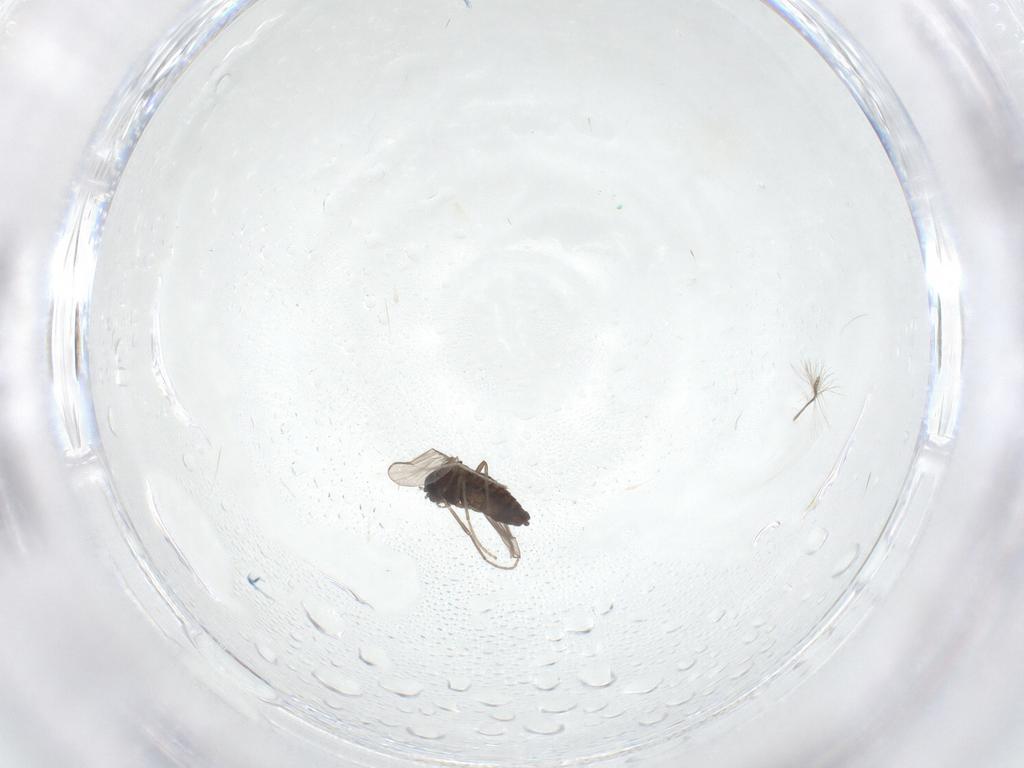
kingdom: Animalia
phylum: Arthropoda
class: Insecta
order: Diptera
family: Chironomidae
